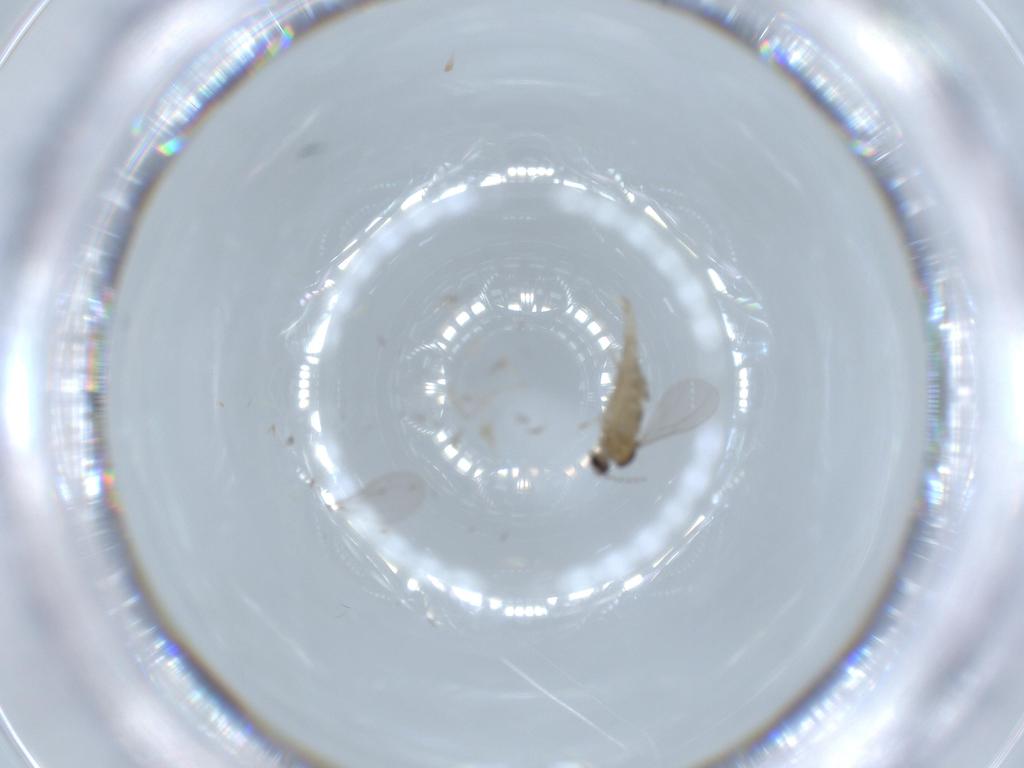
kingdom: Animalia
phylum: Arthropoda
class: Insecta
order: Diptera
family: Cecidomyiidae
